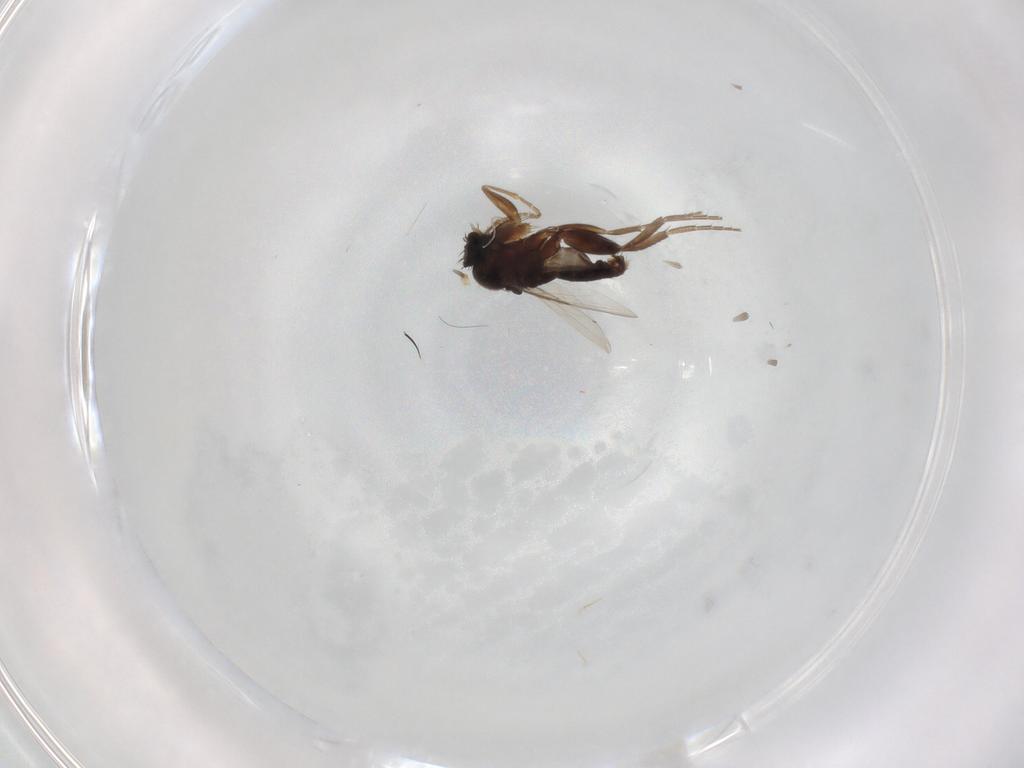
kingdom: Animalia
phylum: Arthropoda
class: Insecta
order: Diptera
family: Phoridae
